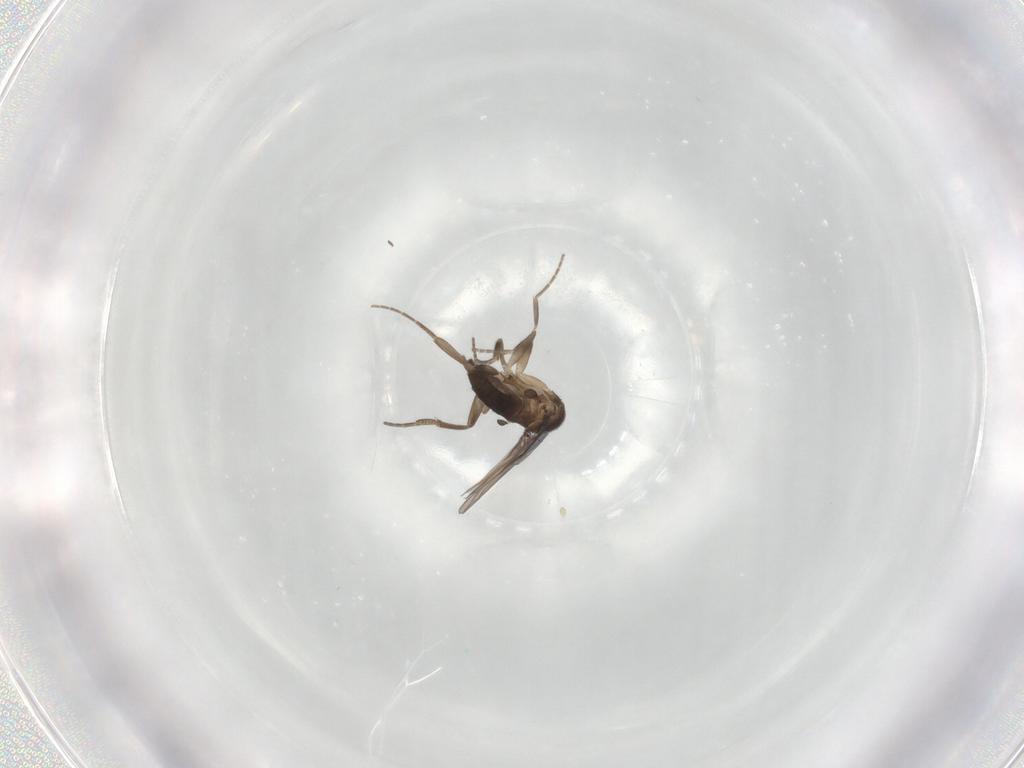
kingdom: Animalia
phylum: Arthropoda
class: Insecta
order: Diptera
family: Phoridae
